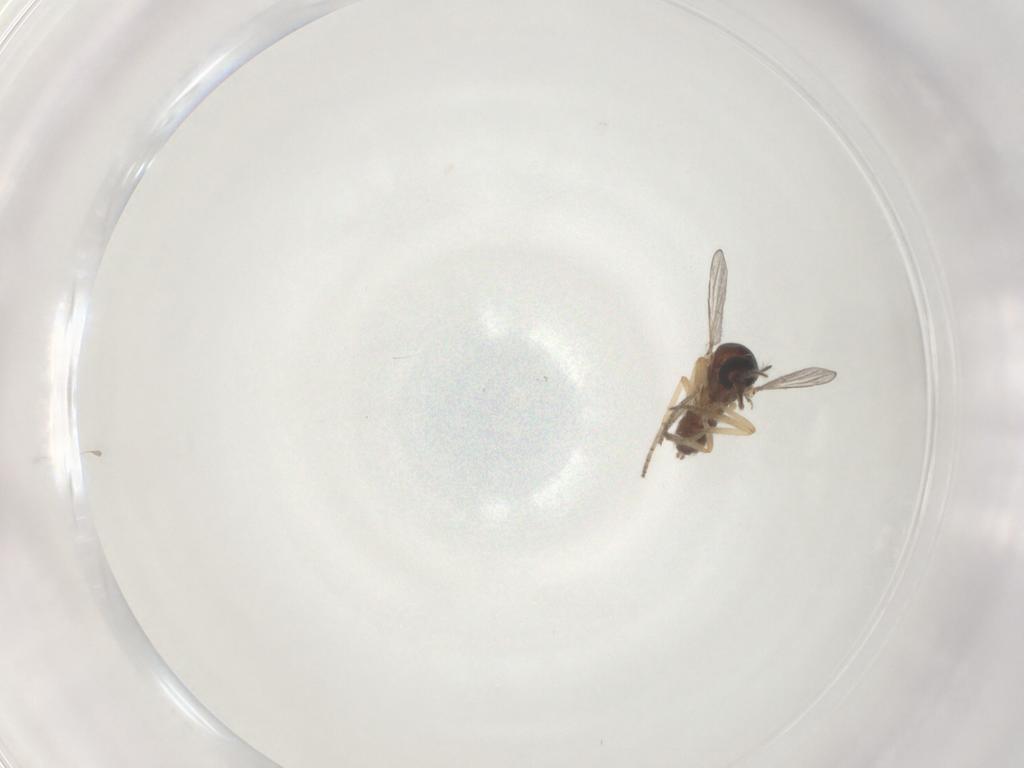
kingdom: Animalia
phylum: Arthropoda
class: Insecta
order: Diptera
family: Ceratopogonidae
